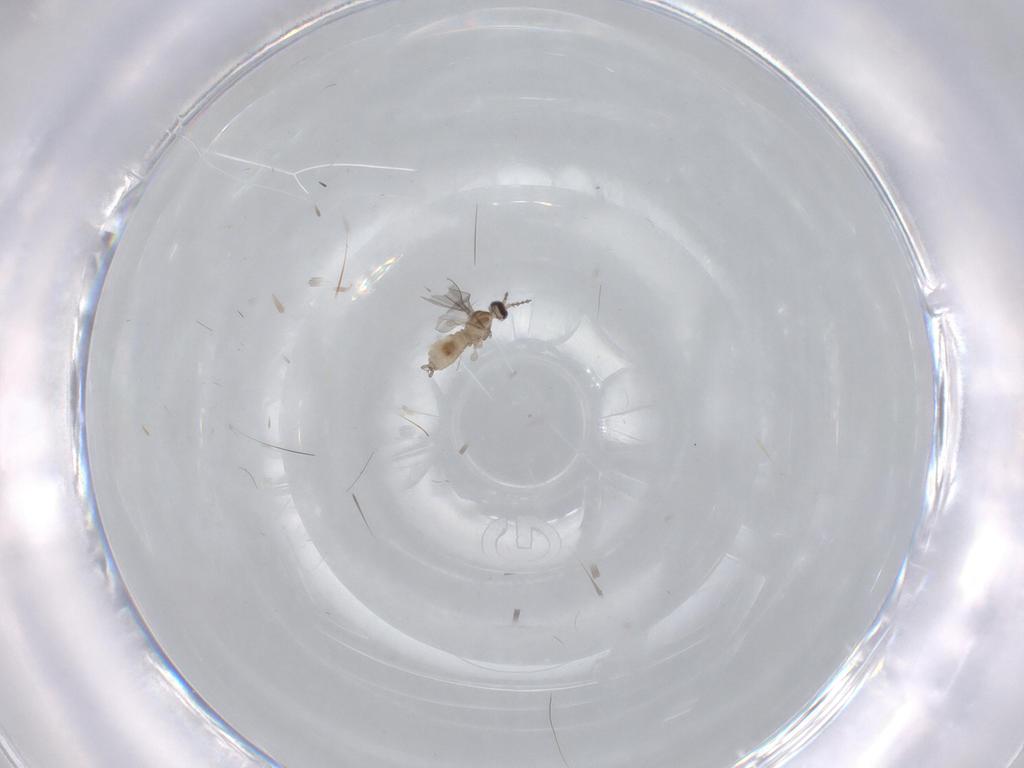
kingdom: Animalia
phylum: Arthropoda
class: Insecta
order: Diptera
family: Cecidomyiidae
